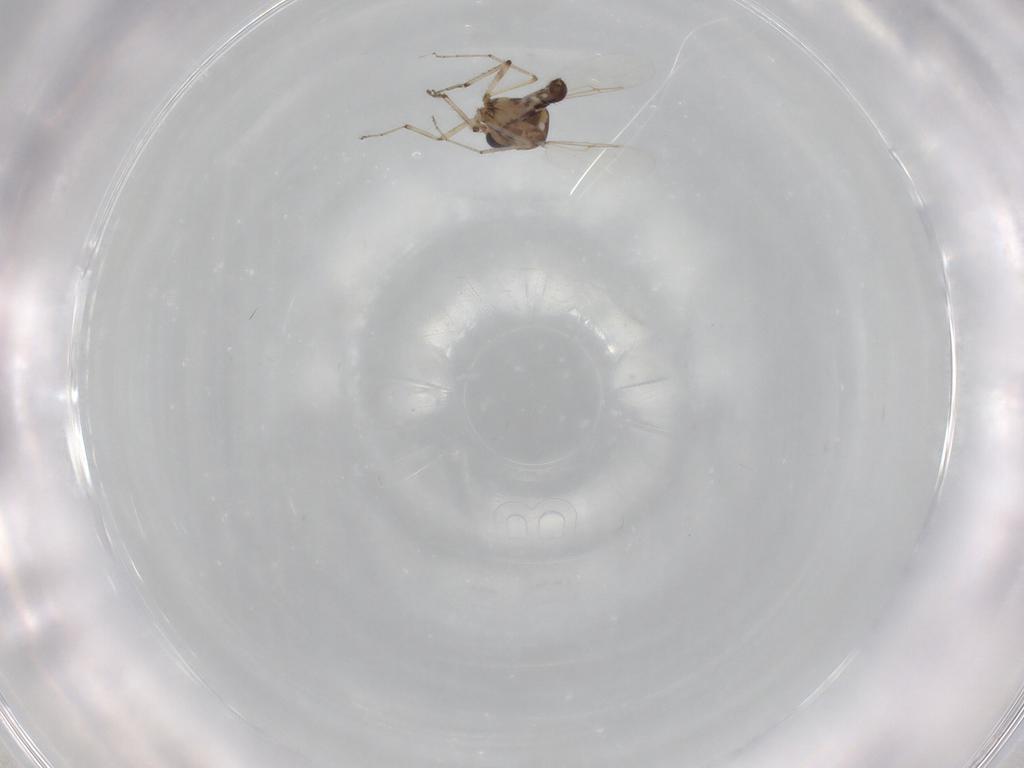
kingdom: Animalia
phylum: Arthropoda
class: Insecta
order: Diptera
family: Ceratopogonidae
